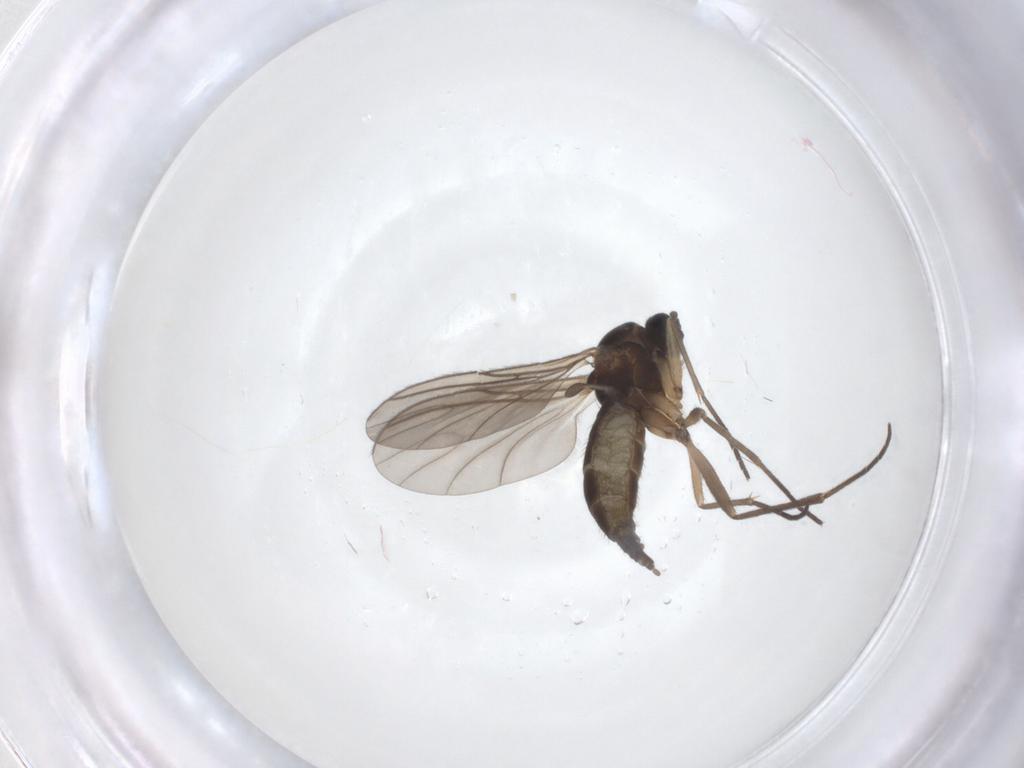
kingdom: Animalia
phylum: Arthropoda
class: Insecta
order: Diptera
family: Sciaridae
